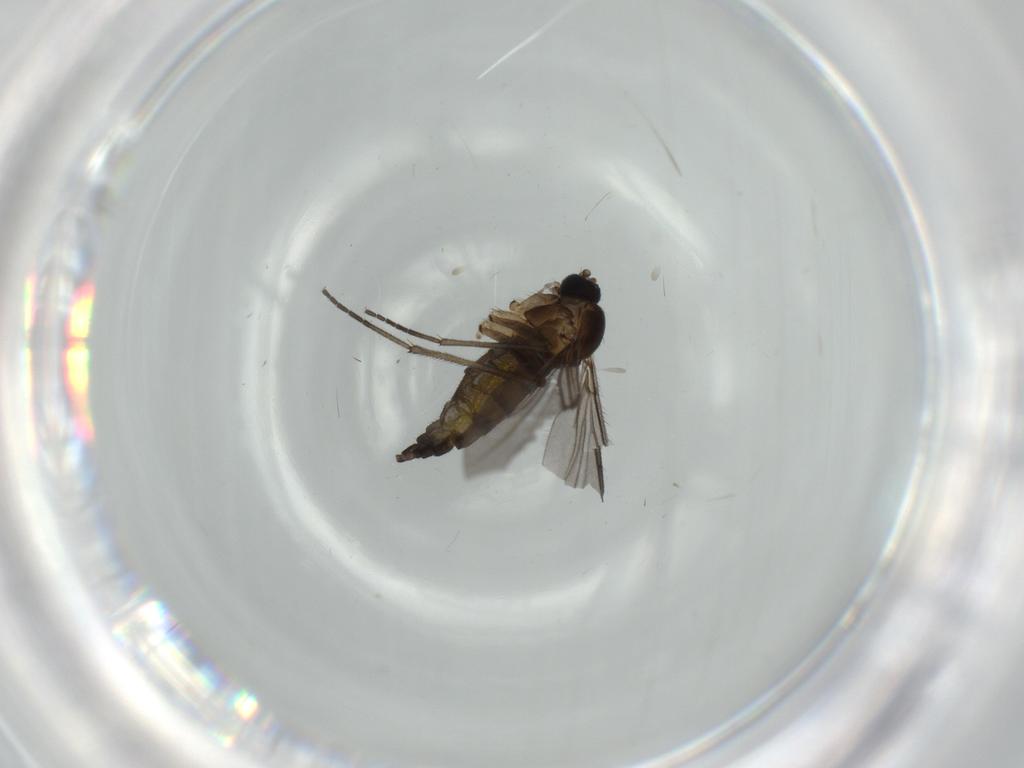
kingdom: Animalia
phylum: Arthropoda
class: Insecta
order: Diptera
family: Sciaridae
